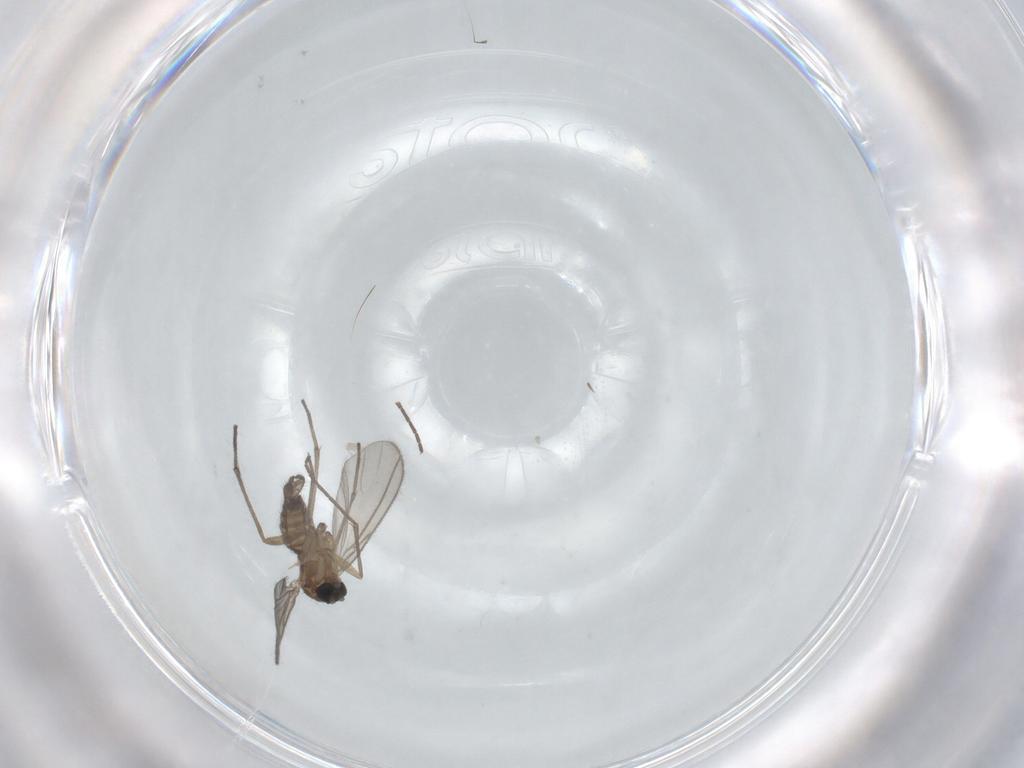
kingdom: Animalia
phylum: Arthropoda
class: Insecta
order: Diptera
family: Sciaridae
